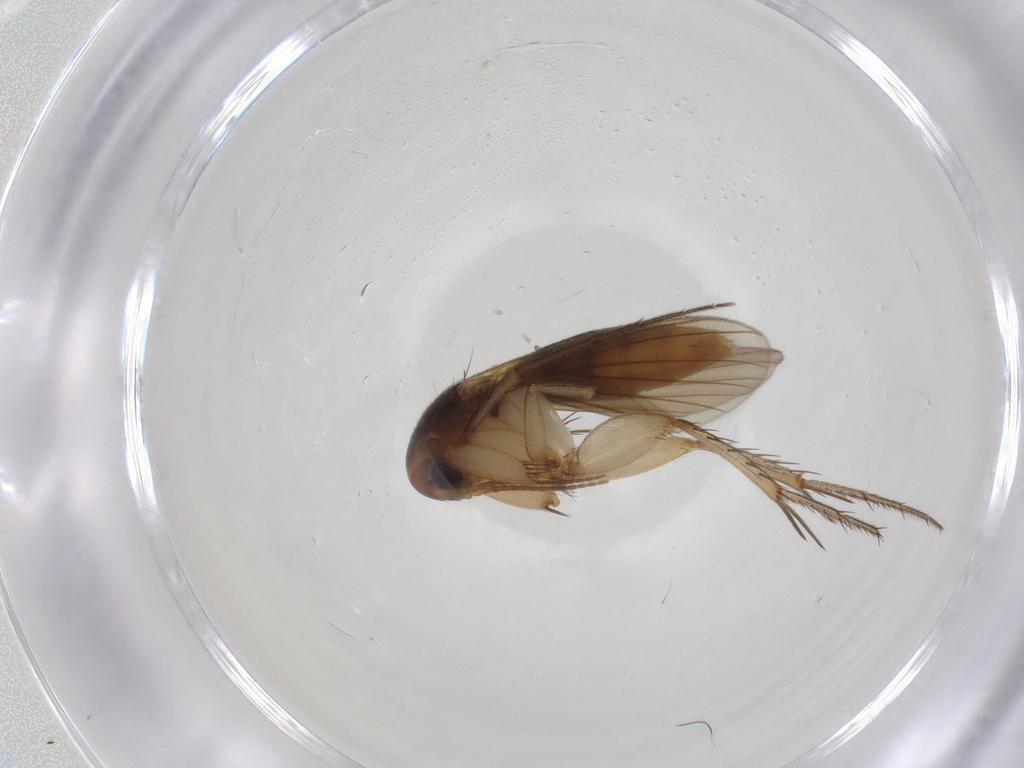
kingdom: Animalia
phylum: Arthropoda
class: Insecta
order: Diptera
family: Mycetophilidae
